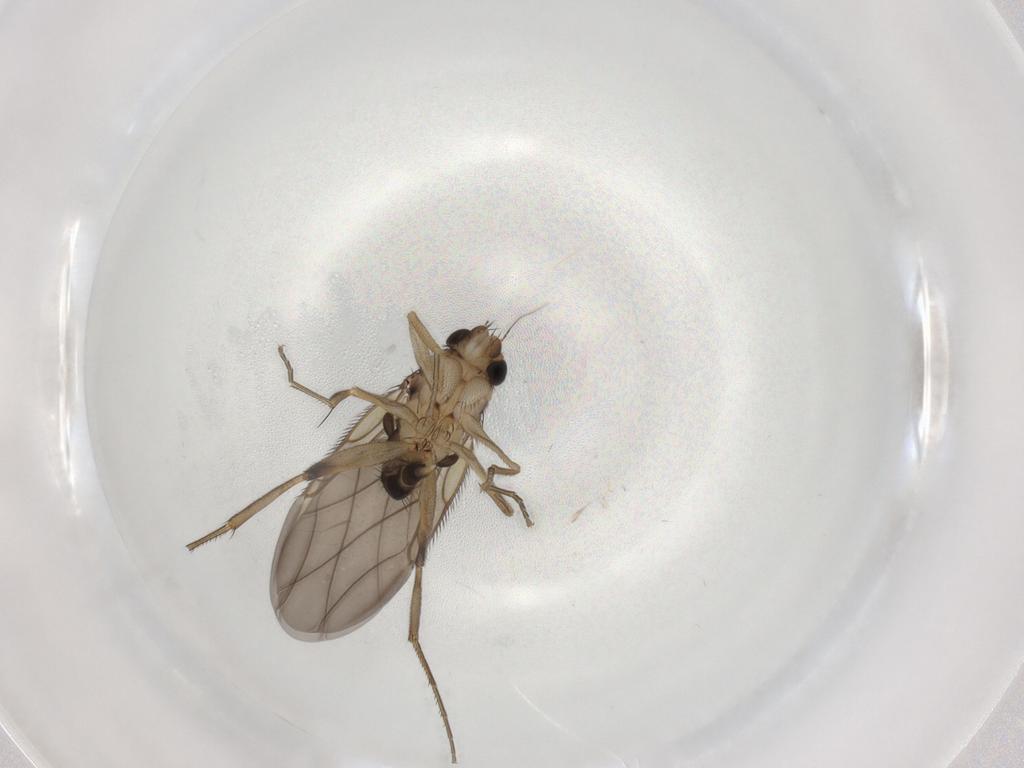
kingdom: Animalia
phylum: Arthropoda
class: Insecta
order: Diptera
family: Phoridae
